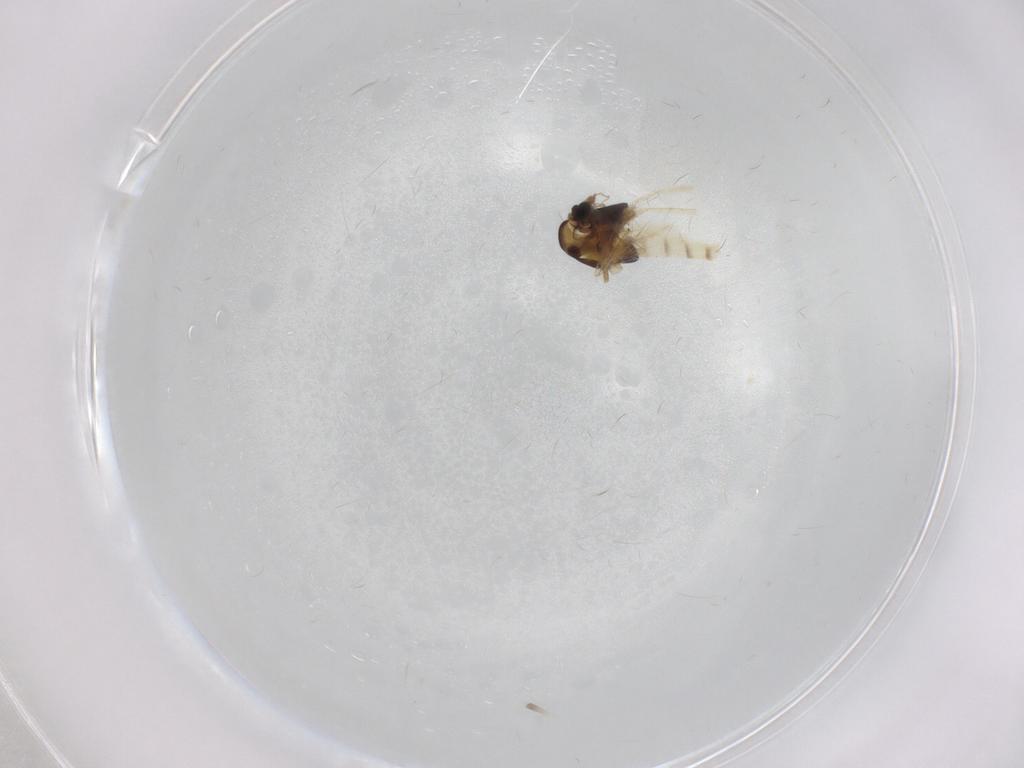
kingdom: Animalia
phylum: Arthropoda
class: Insecta
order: Diptera
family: Chironomidae
